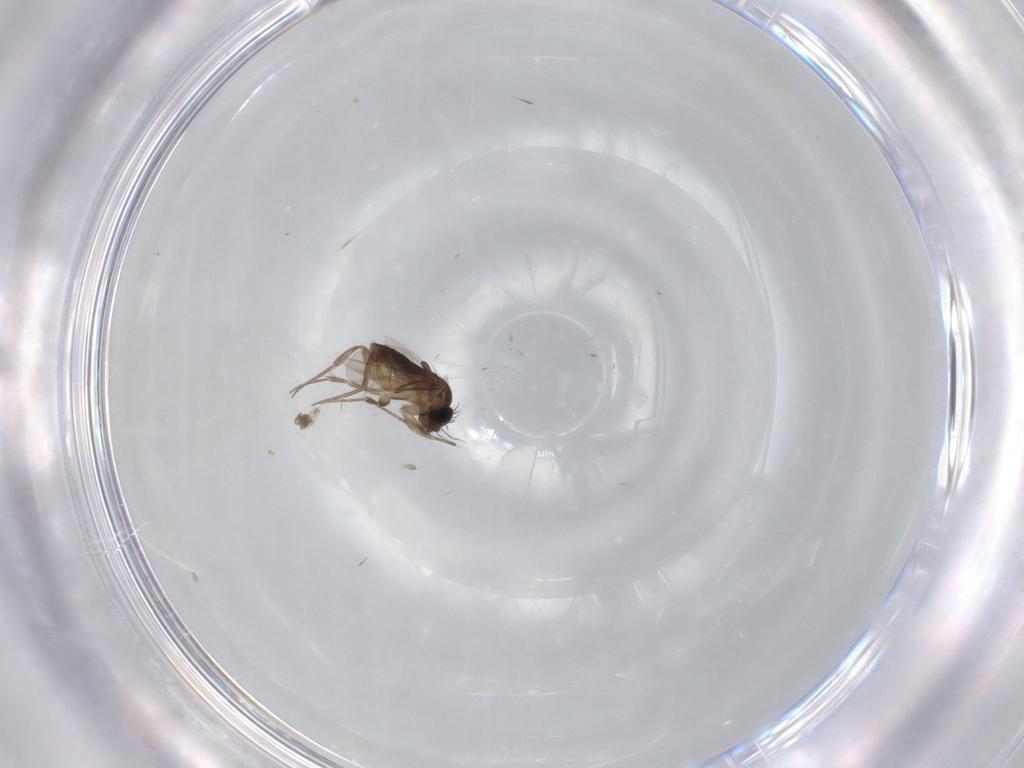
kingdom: Animalia
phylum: Arthropoda
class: Insecta
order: Diptera
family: Phoridae
